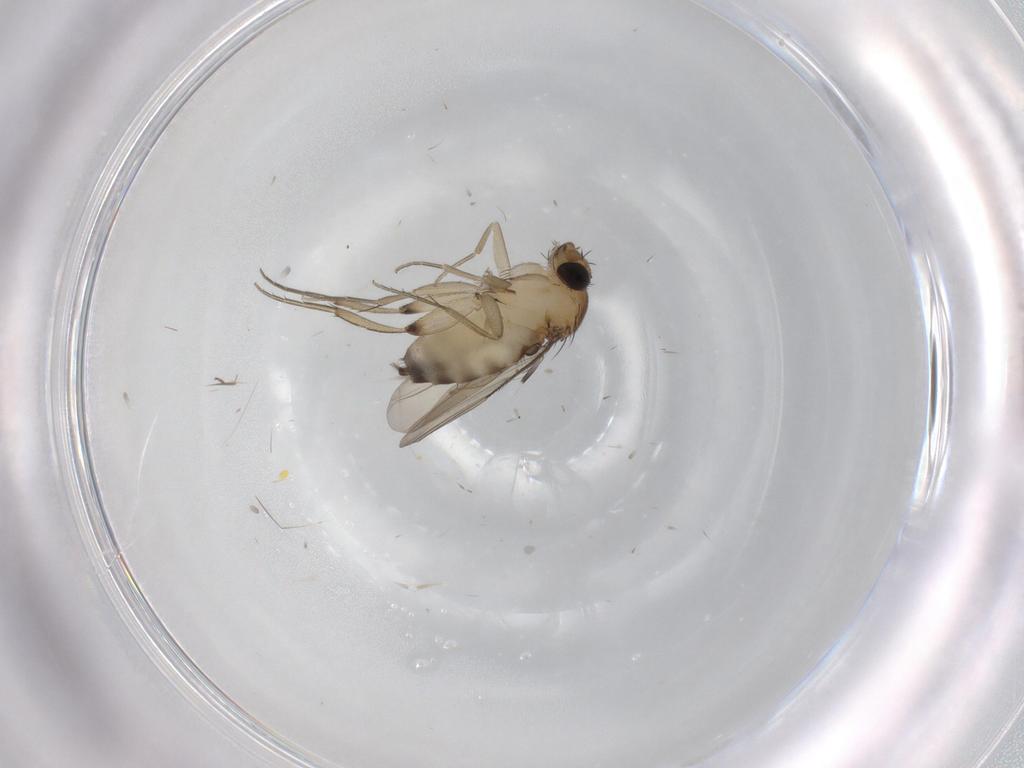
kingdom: Animalia
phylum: Arthropoda
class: Insecta
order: Diptera
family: Phoridae
